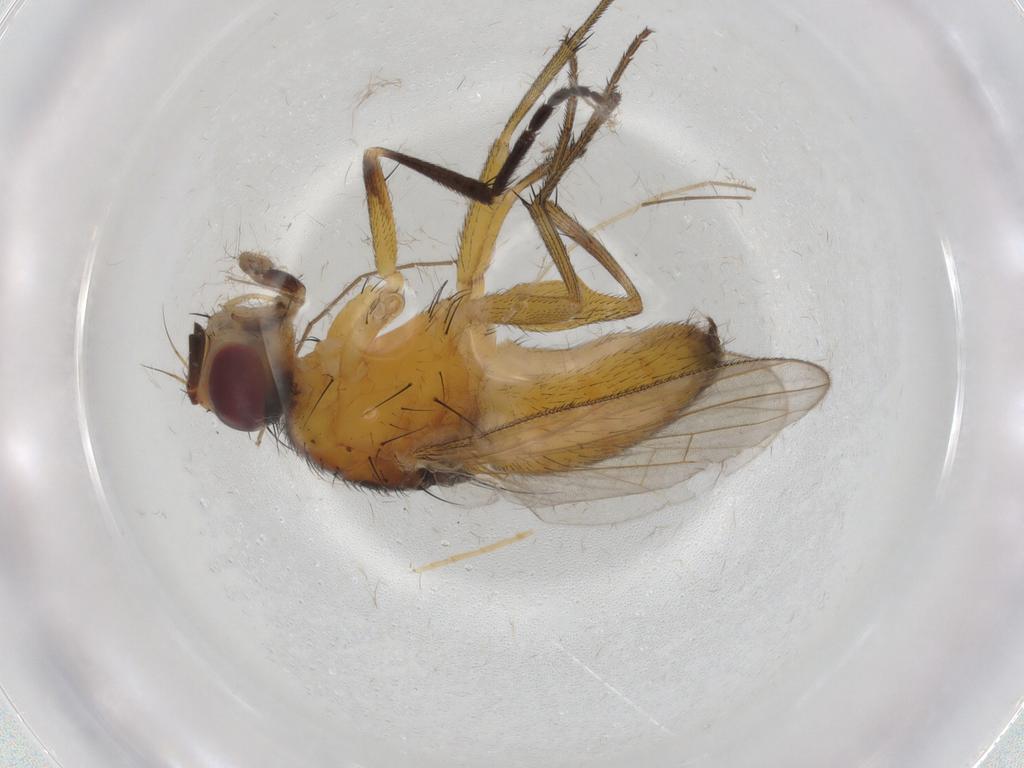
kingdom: Animalia
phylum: Arthropoda
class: Insecta
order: Diptera
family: Muscidae
